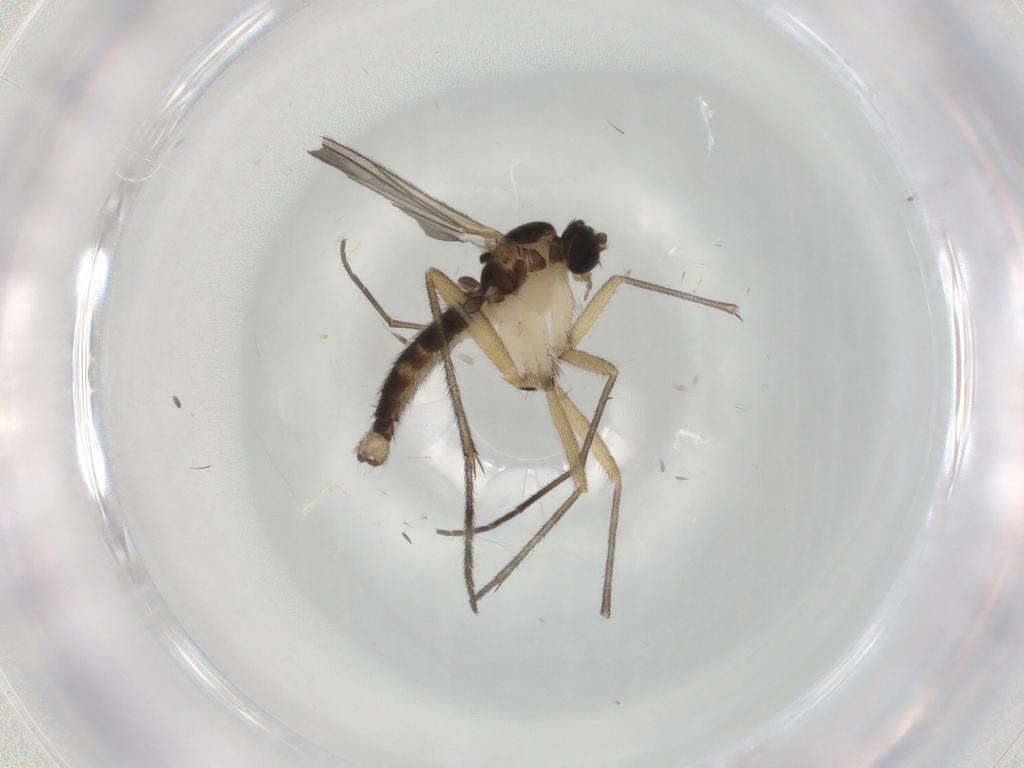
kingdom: Animalia
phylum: Arthropoda
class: Insecta
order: Diptera
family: Sciaridae
